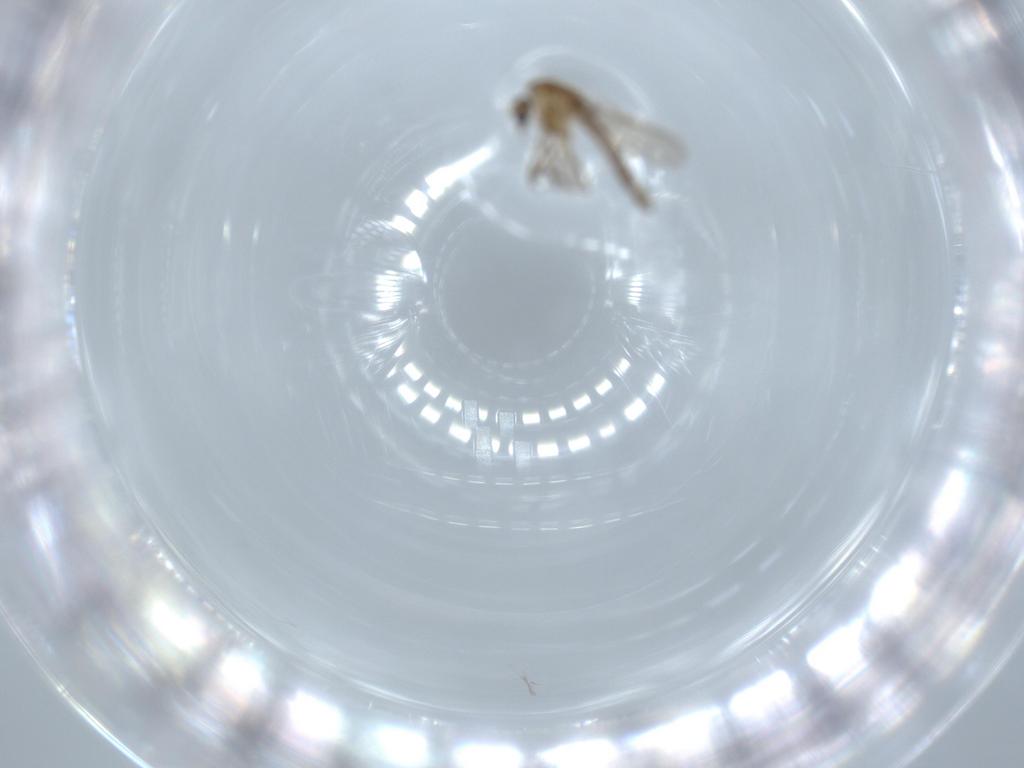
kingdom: Animalia
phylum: Arthropoda
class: Insecta
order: Diptera
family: Chironomidae
